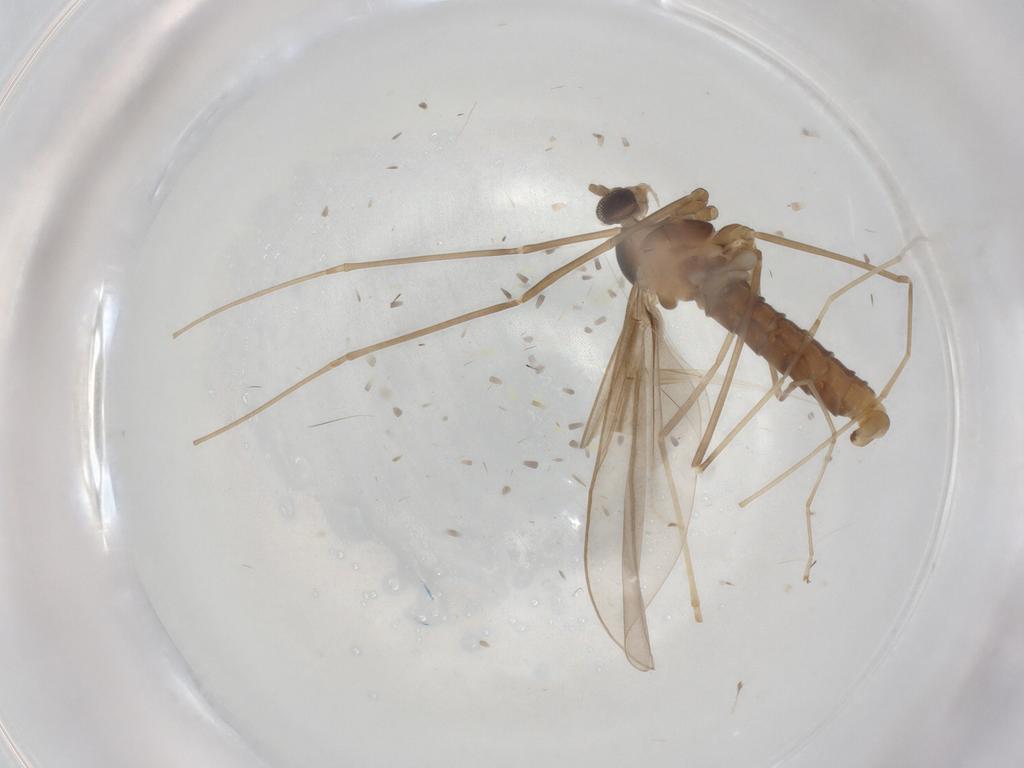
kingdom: Animalia
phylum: Arthropoda
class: Insecta
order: Diptera
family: Cecidomyiidae
